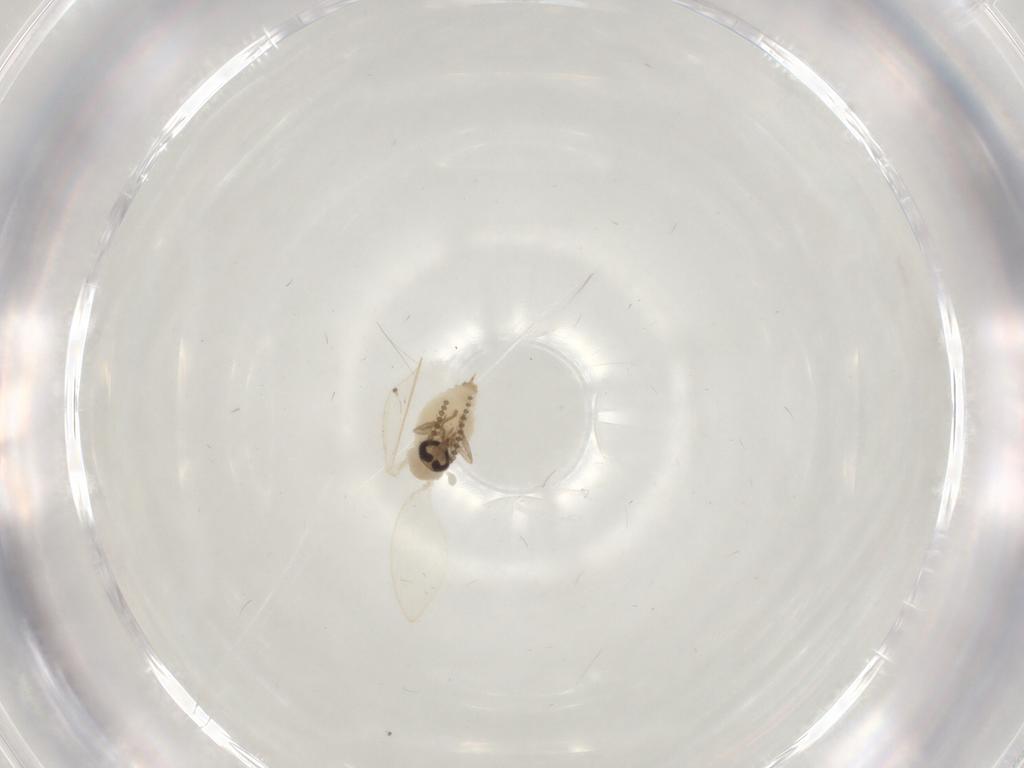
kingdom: Animalia
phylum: Arthropoda
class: Insecta
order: Diptera
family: Psychodidae
